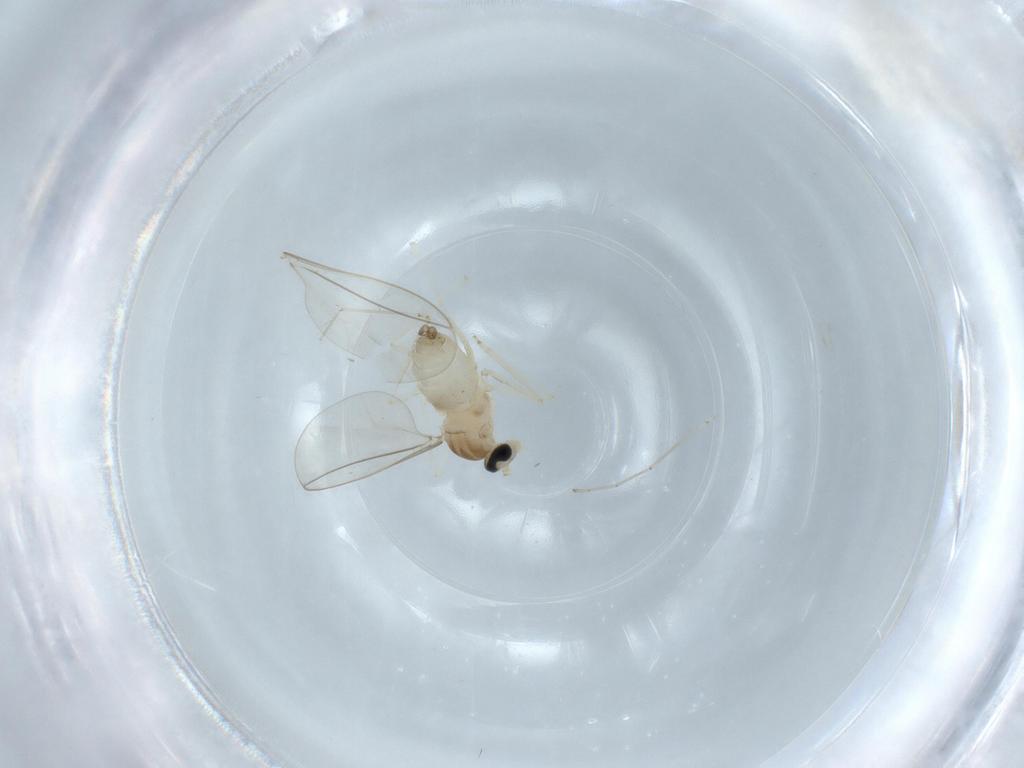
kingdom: Animalia
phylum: Arthropoda
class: Insecta
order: Diptera
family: Cecidomyiidae
